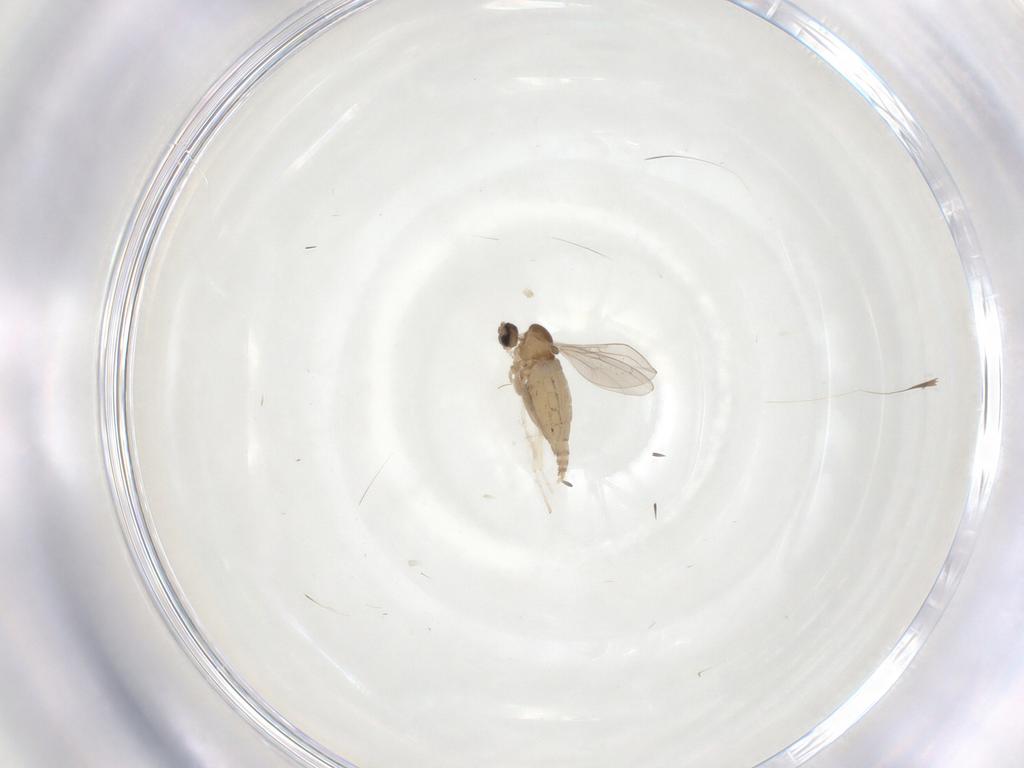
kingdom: Animalia
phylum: Arthropoda
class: Insecta
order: Diptera
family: Cecidomyiidae
